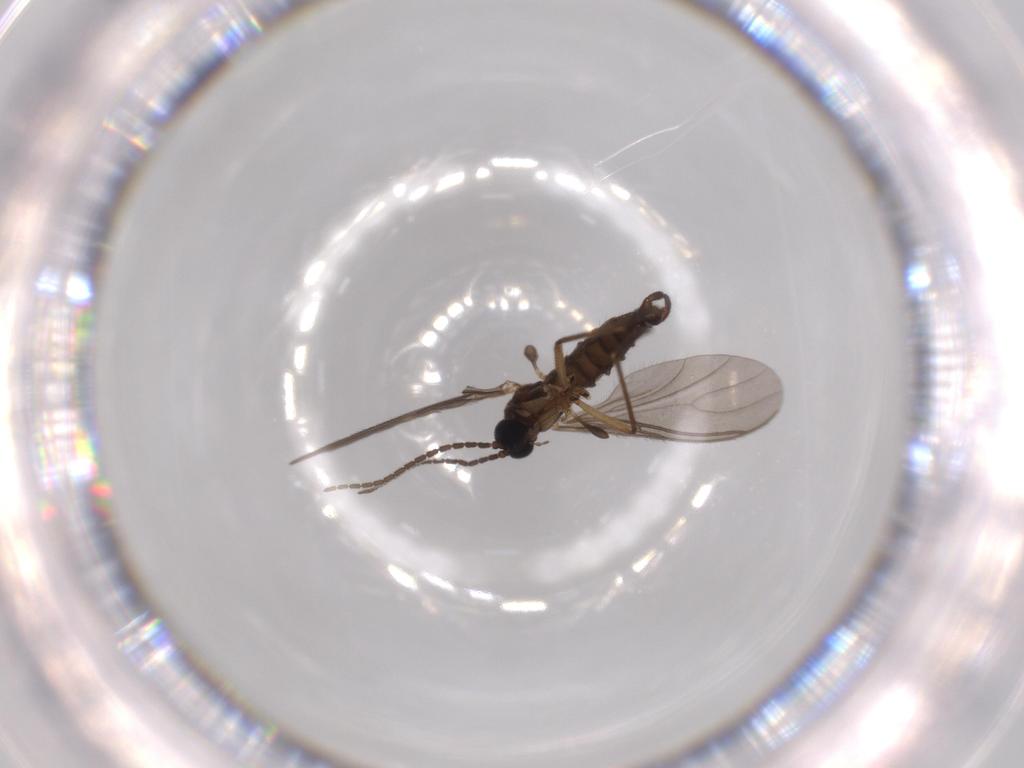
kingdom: Animalia
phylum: Arthropoda
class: Insecta
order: Diptera
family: Sciaridae
